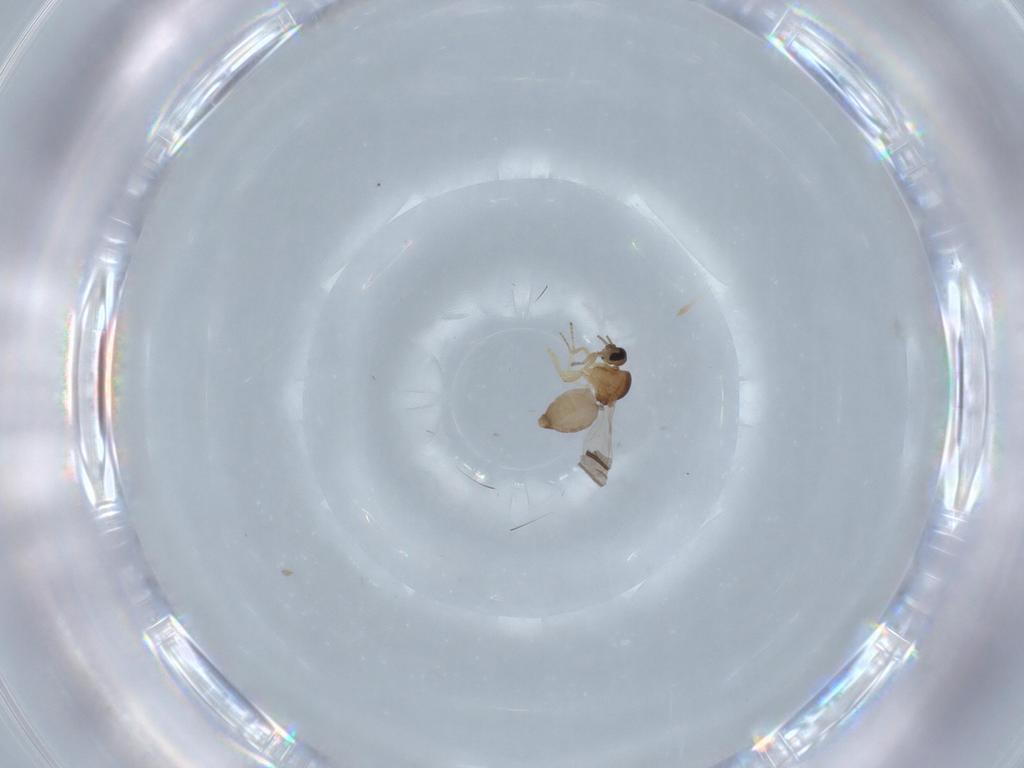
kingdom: Animalia
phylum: Arthropoda
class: Insecta
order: Diptera
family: Ceratopogonidae
